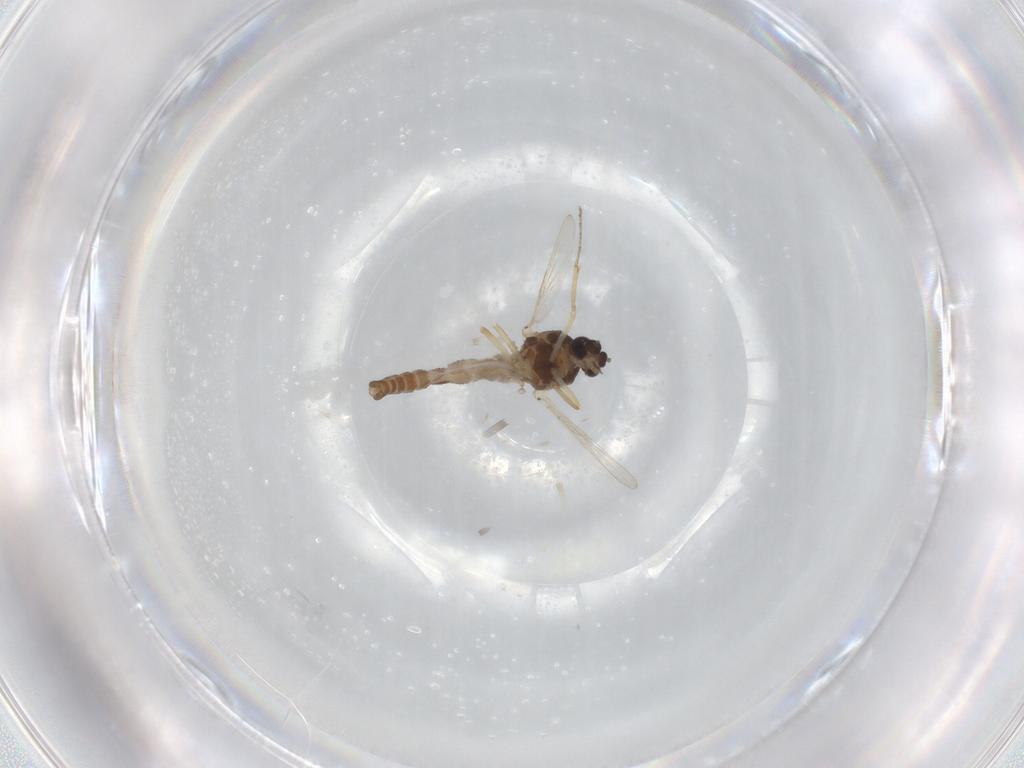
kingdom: Animalia
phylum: Arthropoda
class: Insecta
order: Diptera
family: Ceratopogonidae
